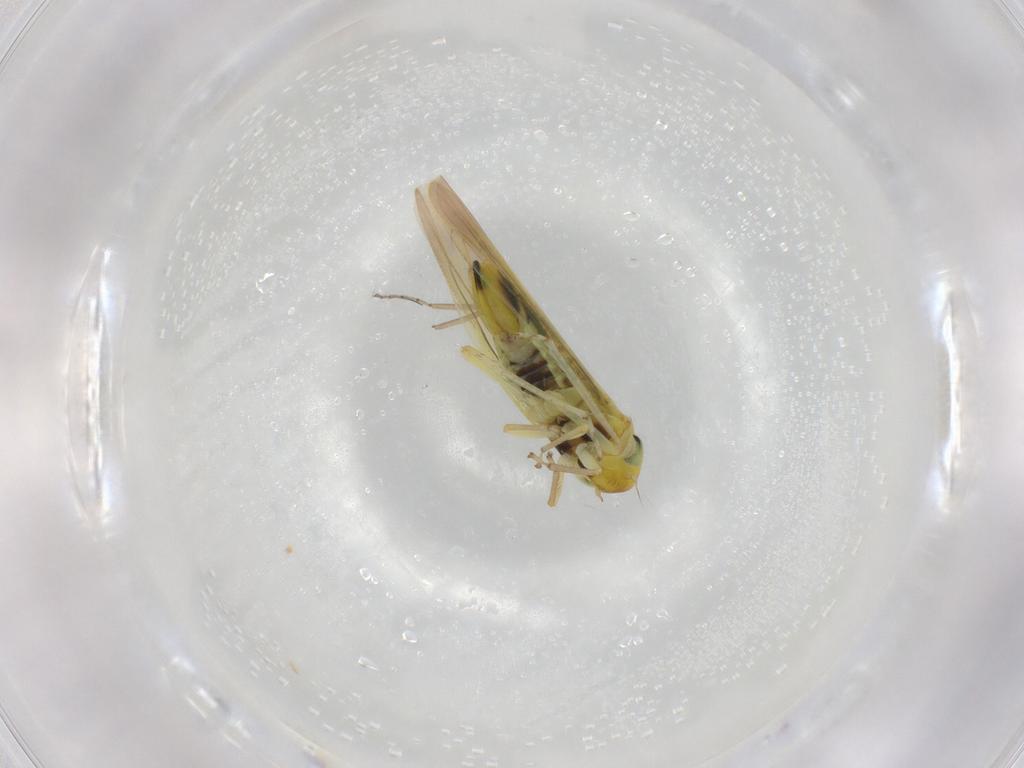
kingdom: Animalia
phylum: Arthropoda
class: Insecta
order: Hemiptera
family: Cicadellidae
